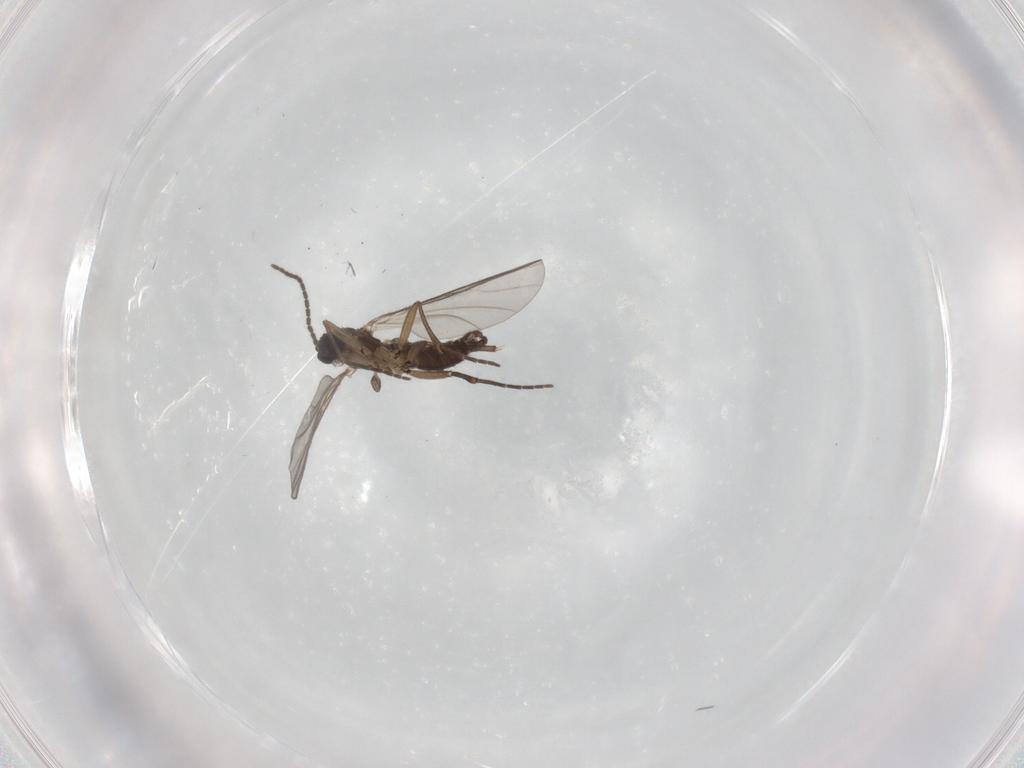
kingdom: Animalia
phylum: Arthropoda
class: Insecta
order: Diptera
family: Sciaridae
